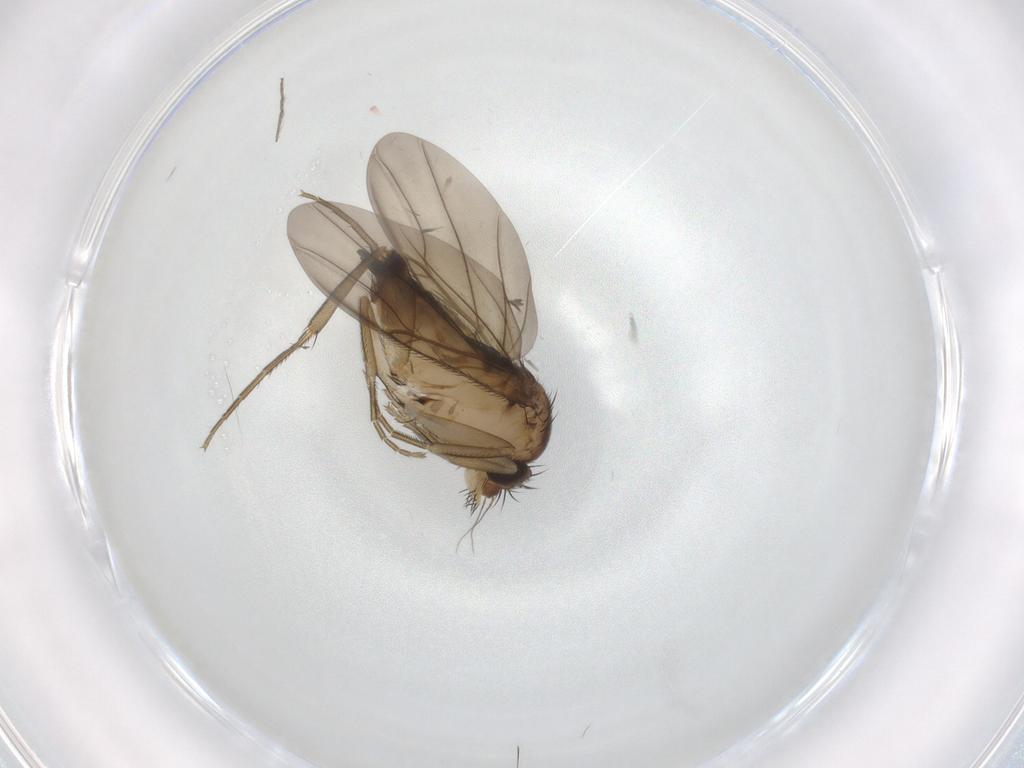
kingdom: Animalia
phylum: Arthropoda
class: Insecta
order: Diptera
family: Phoridae
